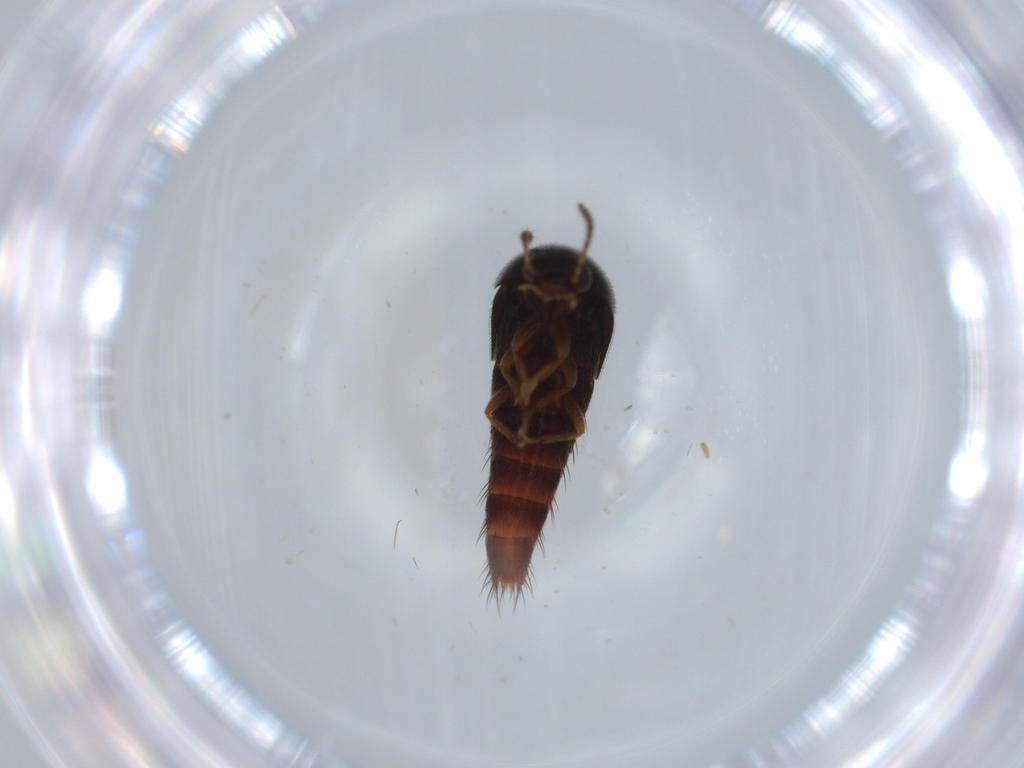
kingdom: Animalia
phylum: Arthropoda
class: Insecta
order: Coleoptera
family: Staphylinidae
